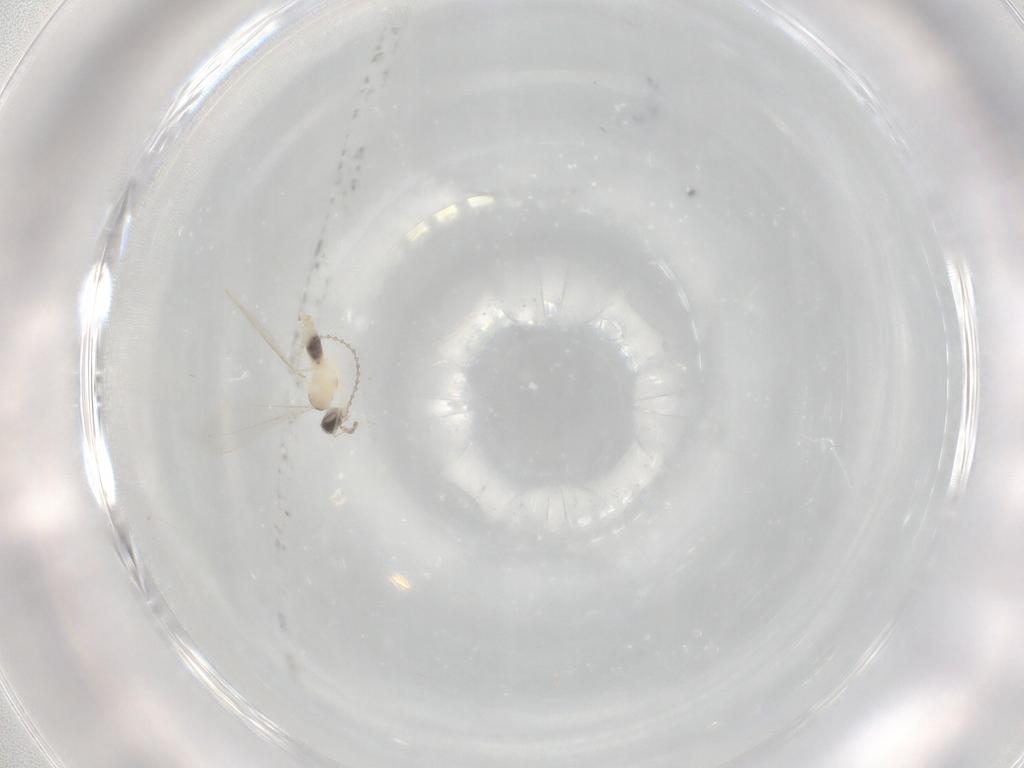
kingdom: Animalia
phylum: Arthropoda
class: Insecta
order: Diptera
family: Cecidomyiidae
